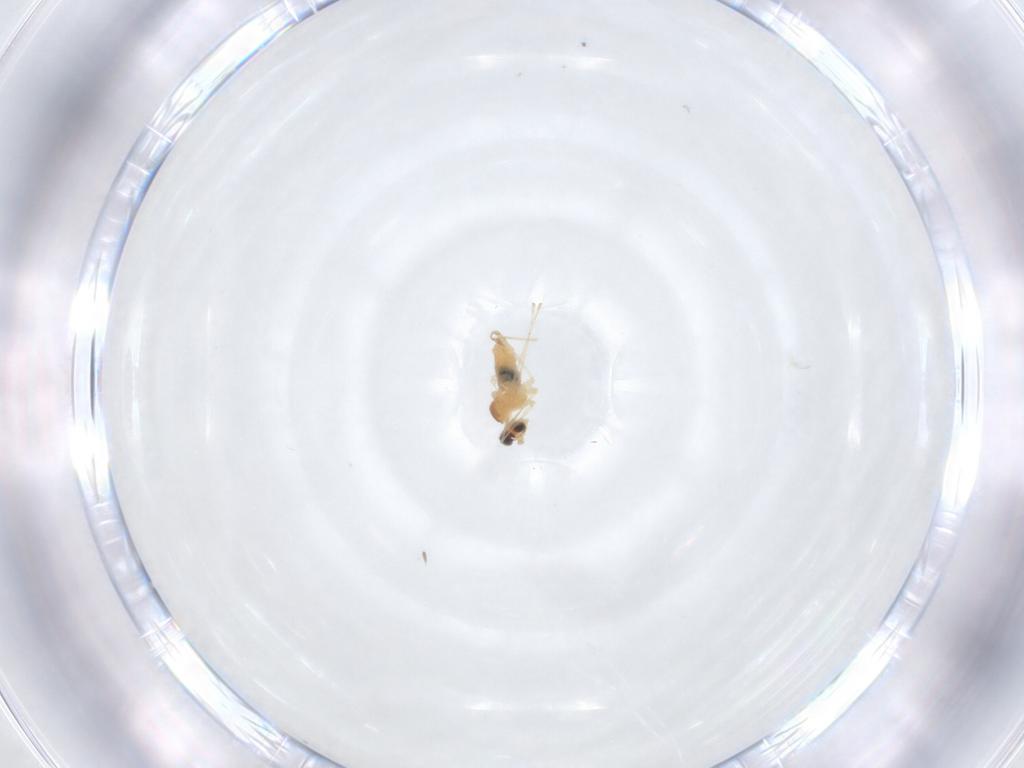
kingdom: Animalia
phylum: Arthropoda
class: Insecta
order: Diptera
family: Cecidomyiidae
